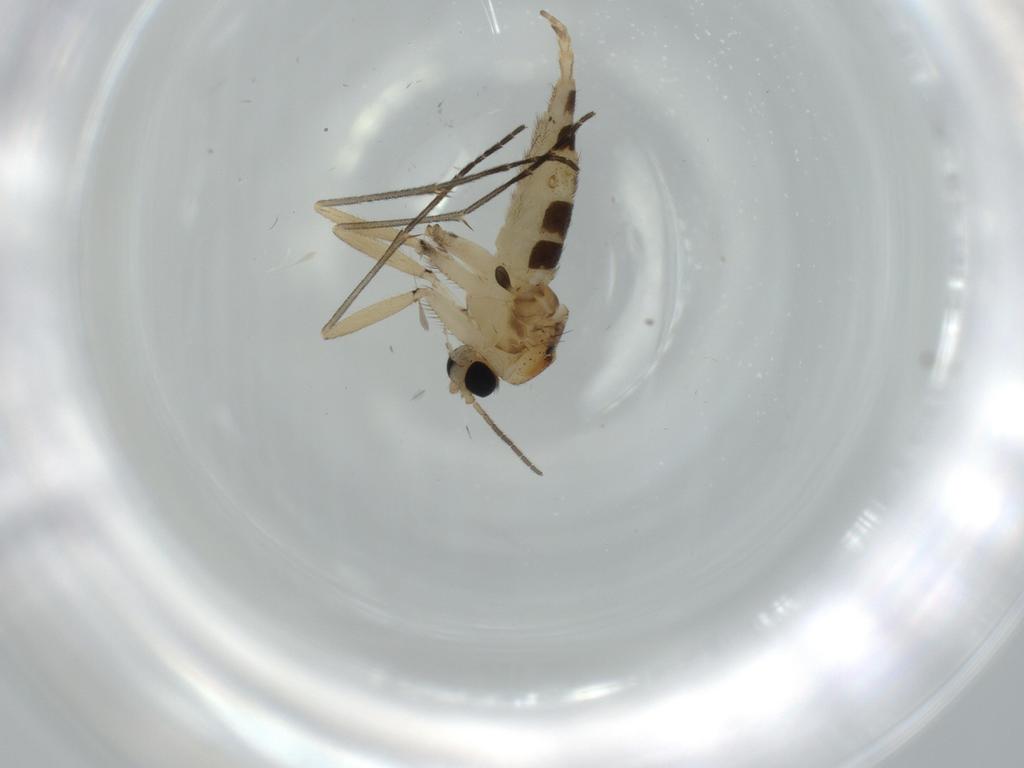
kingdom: Animalia
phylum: Arthropoda
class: Insecta
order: Diptera
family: Sciaridae
